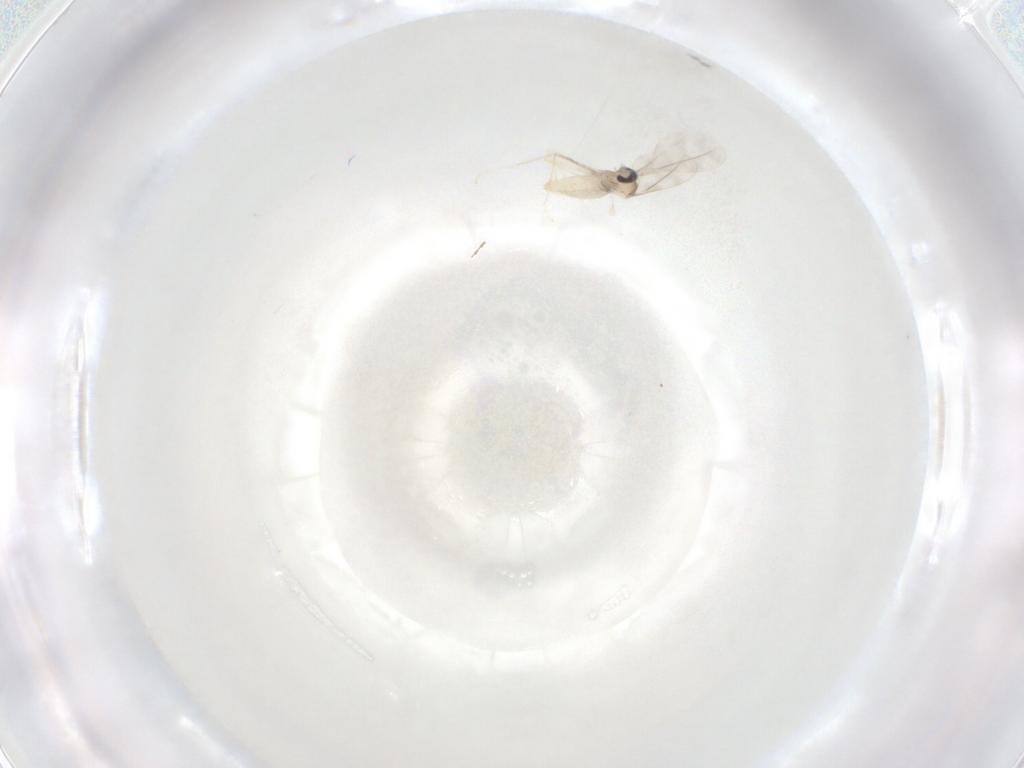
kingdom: Animalia
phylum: Arthropoda
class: Insecta
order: Diptera
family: Cecidomyiidae
